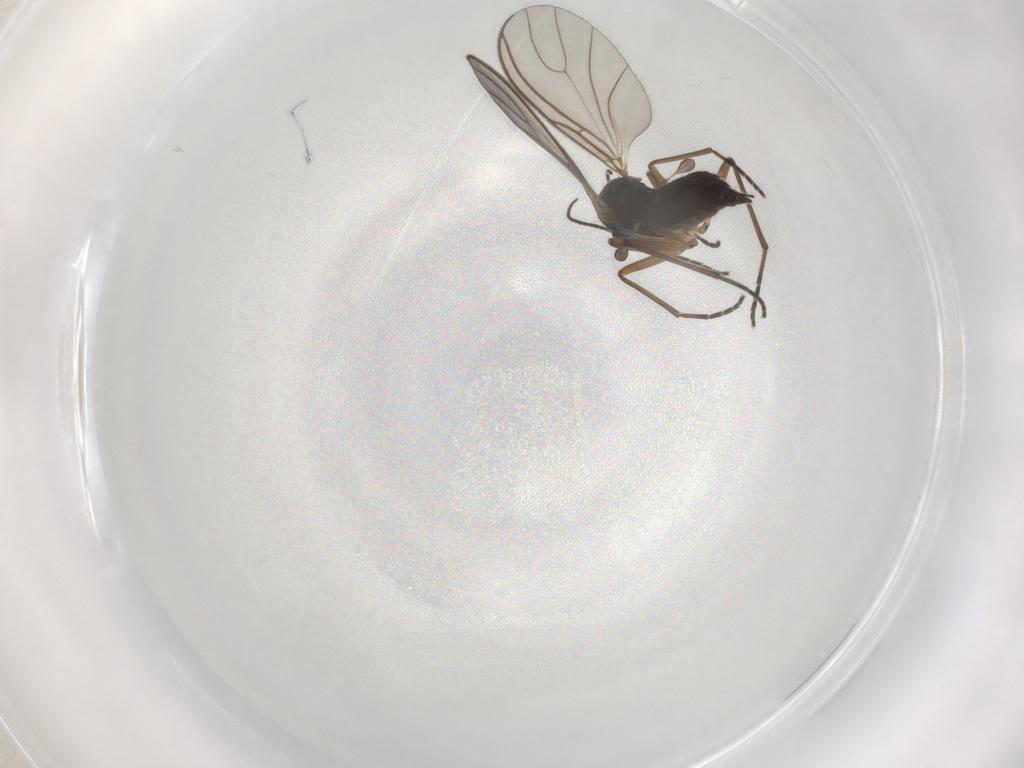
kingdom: Animalia
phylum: Arthropoda
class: Insecta
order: Diptera
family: Sciaridae
